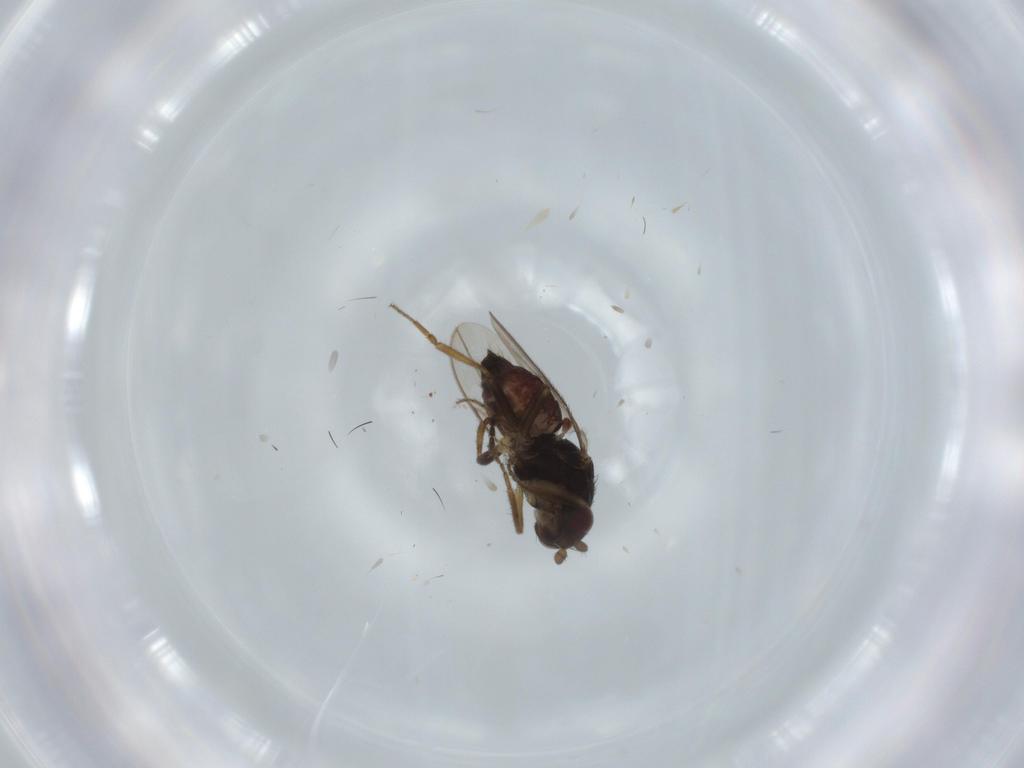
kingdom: Animalia
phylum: Arthropoda
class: Insecta
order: Diptera
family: Sphaeroceridae
